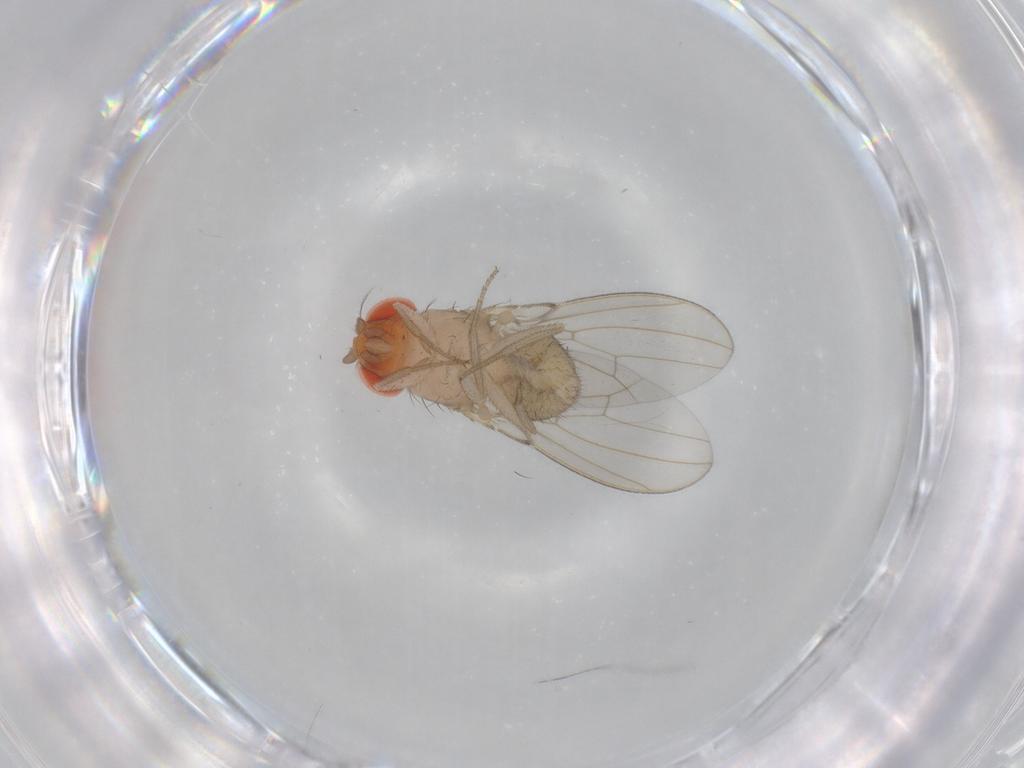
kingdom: Animalia
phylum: Arthropoda
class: Insecta
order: Diptera
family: Drosophilidae
